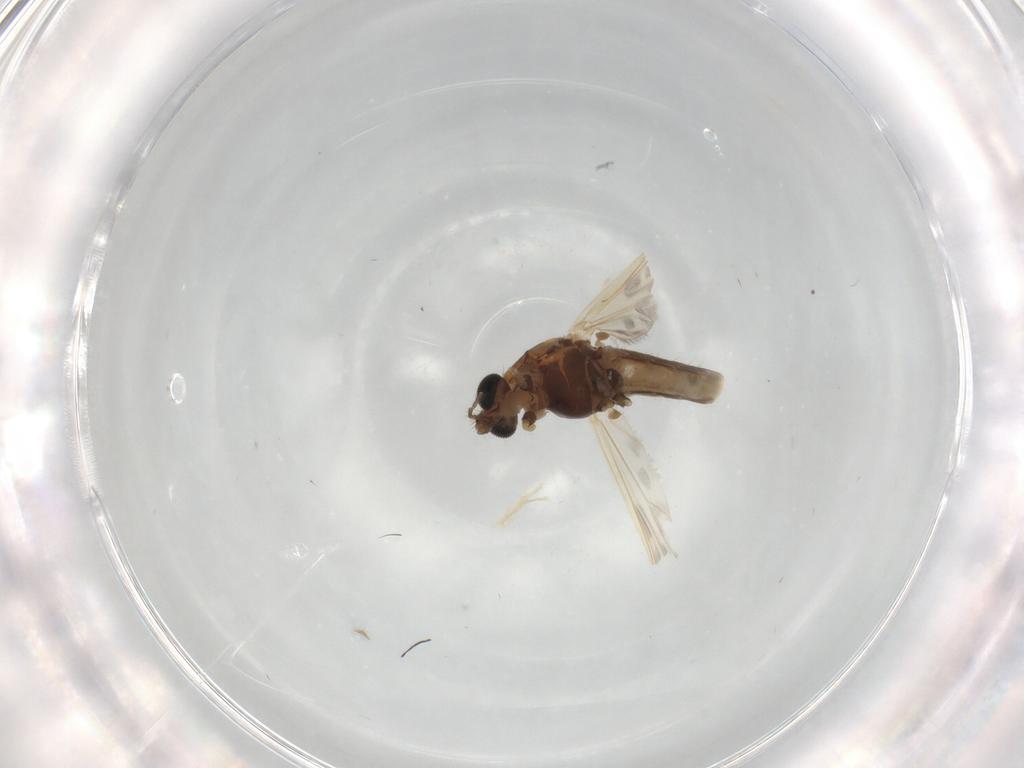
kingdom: Animalia
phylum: Arthropoda
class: Insecta
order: Diptera
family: Chironomidae
